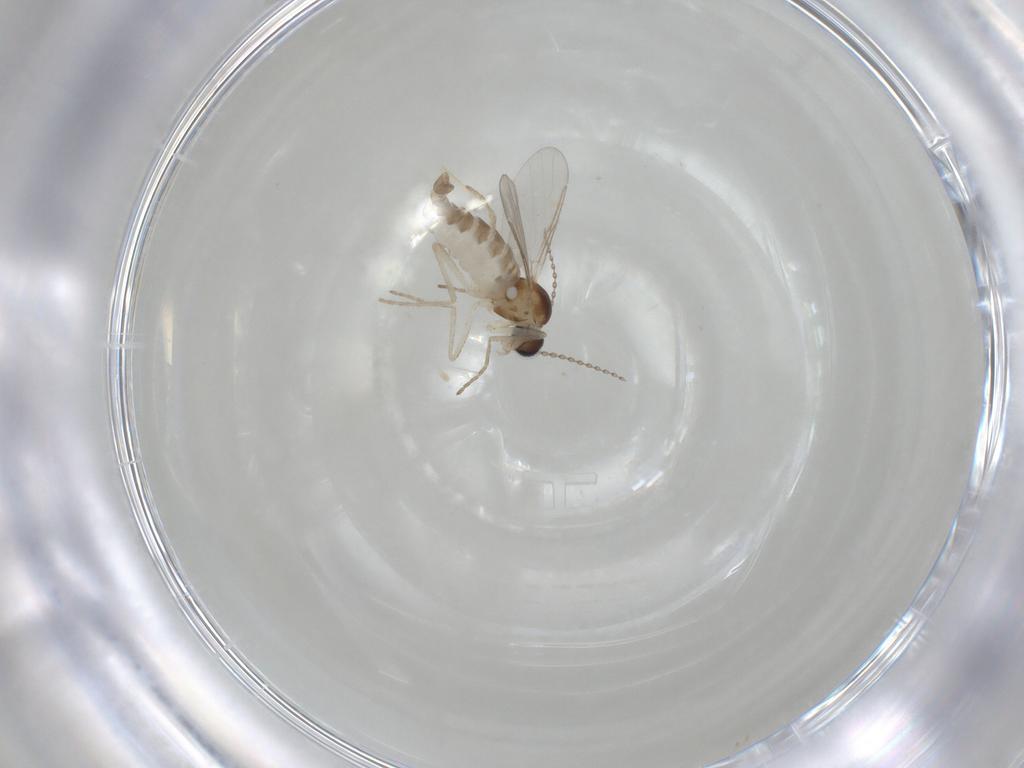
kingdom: Animalia
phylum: Arthropoda
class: Insecta
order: Diptera
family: Cecidomyiidae
